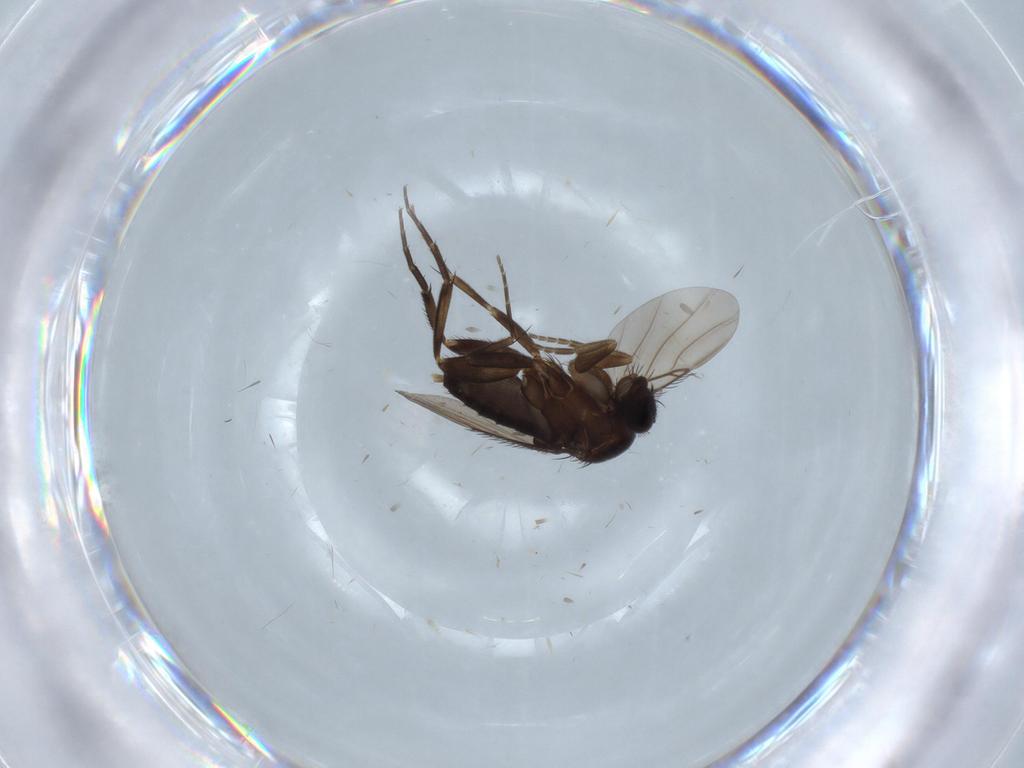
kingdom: Animalia
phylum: Arthropoda
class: Insecta
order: Diptera
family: Phoridae
